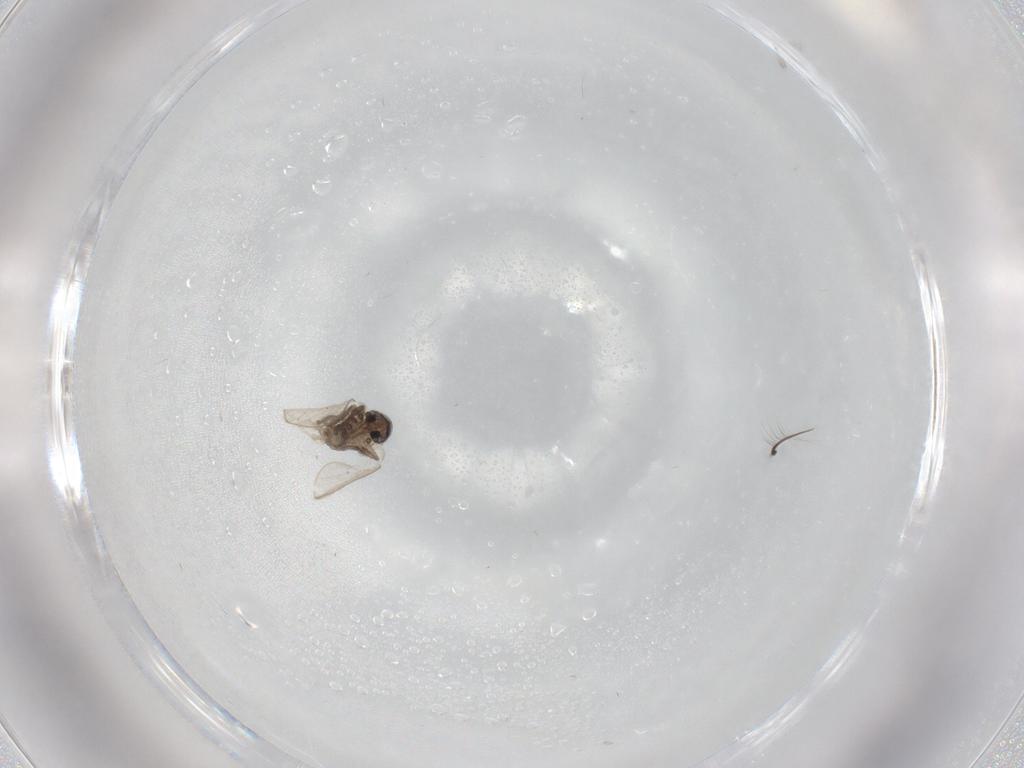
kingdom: Animalia
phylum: Arthropoda
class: Insecta
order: Diptera
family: Psychodidae
